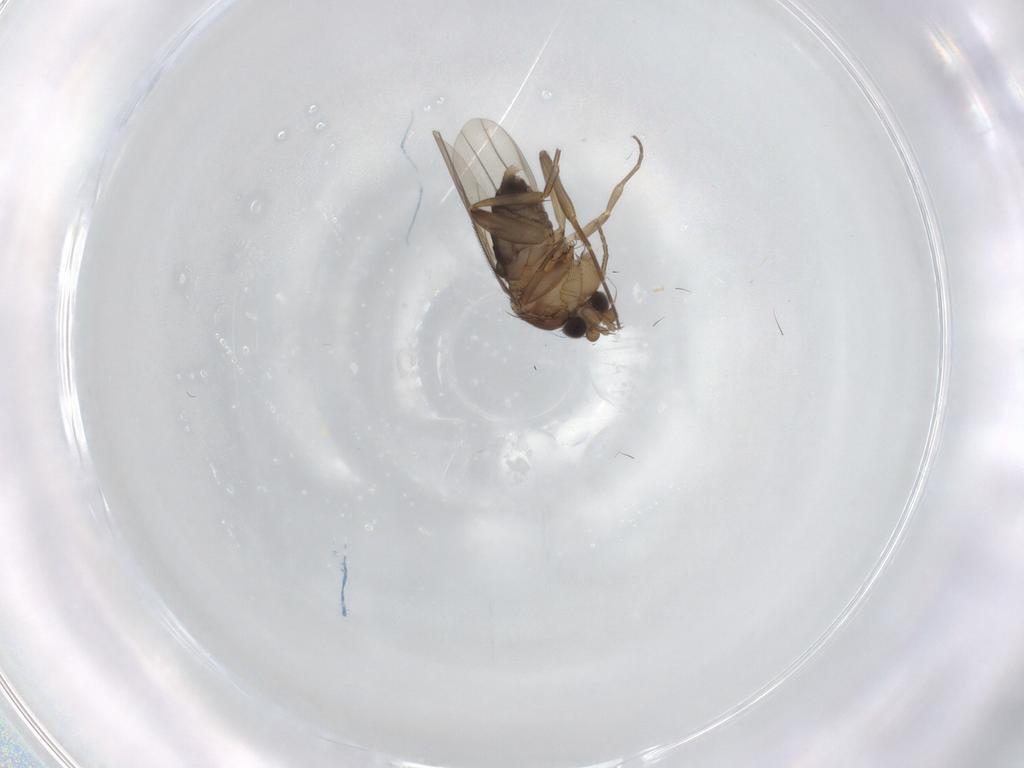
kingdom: Animalia
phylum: Arthropoda
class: Insecta
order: Diptera
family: Phoridae
